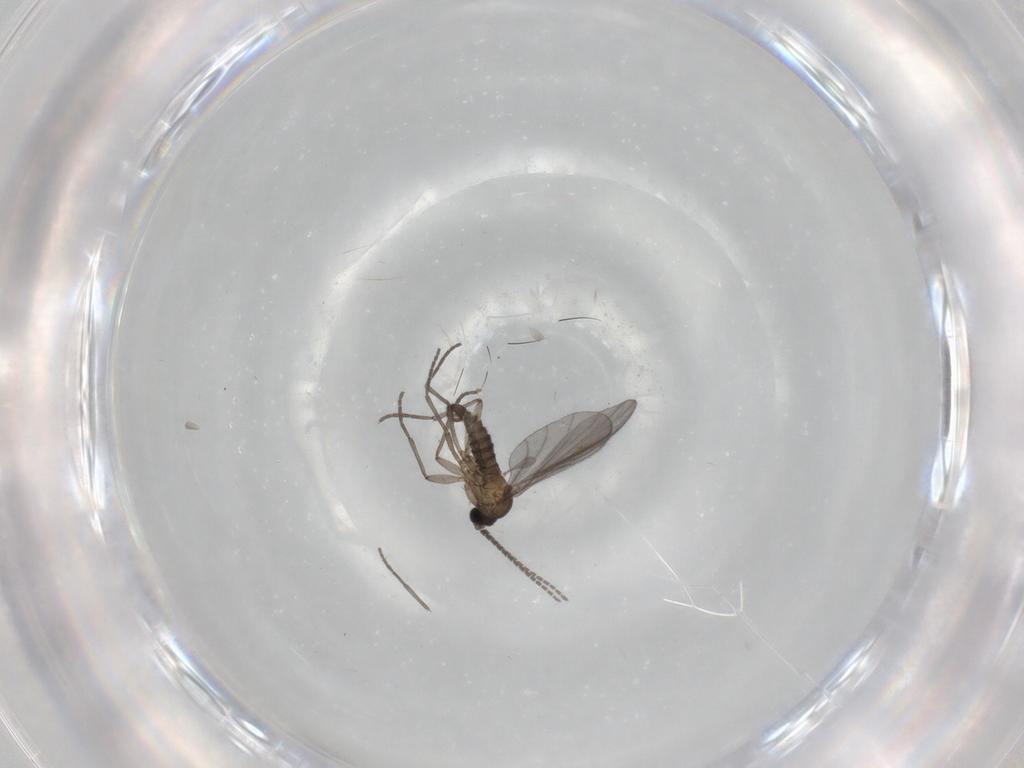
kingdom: Animalia
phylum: Arthropoda
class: Insecta
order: Diptera
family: Sciaridae
